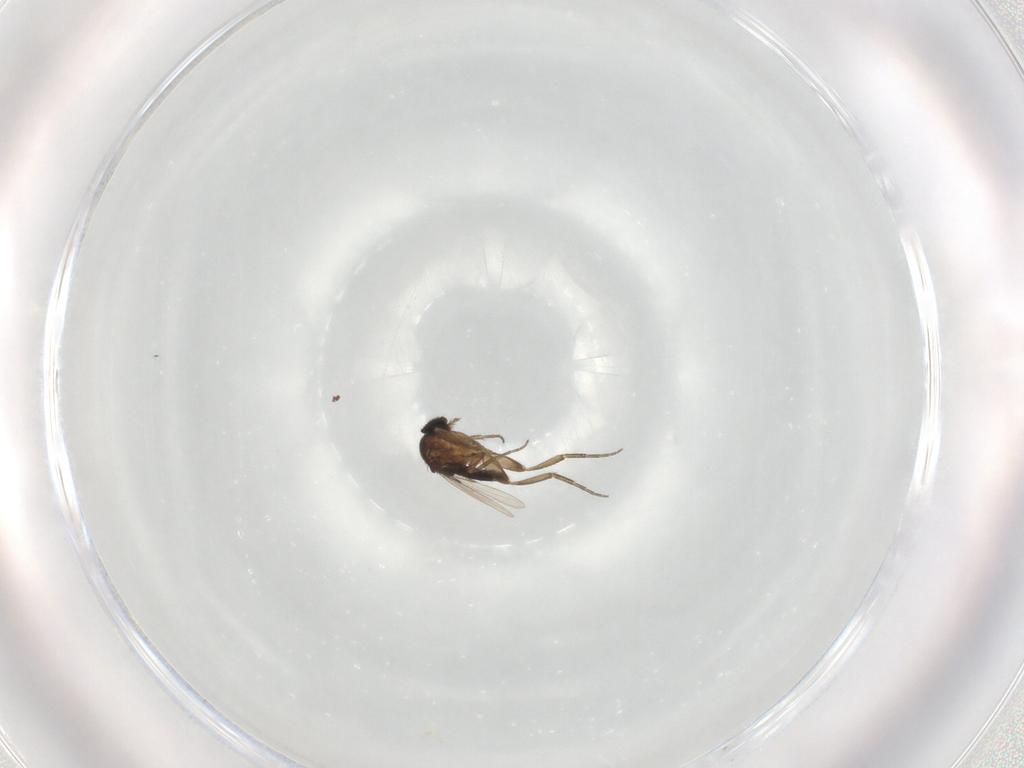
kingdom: Animalia
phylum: Arthropoda
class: Insecta
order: Diptera
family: Phoridae
